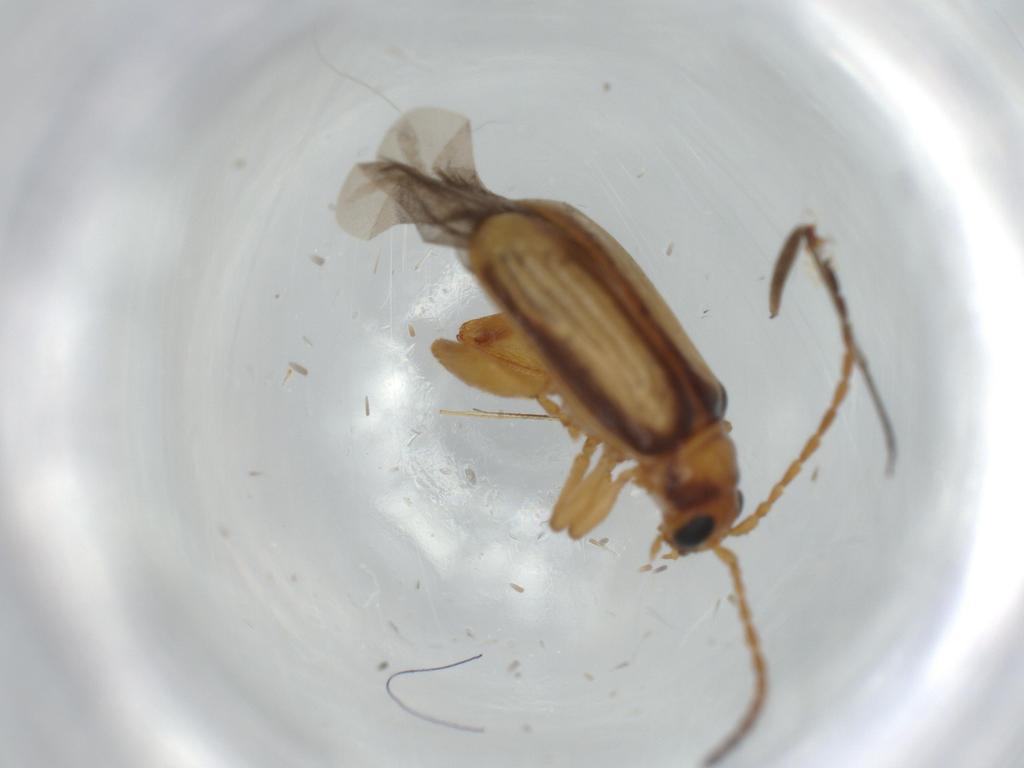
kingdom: Animalia
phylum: Arthropoda
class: Insecta
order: Coleoptera
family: Chrysomelidae
